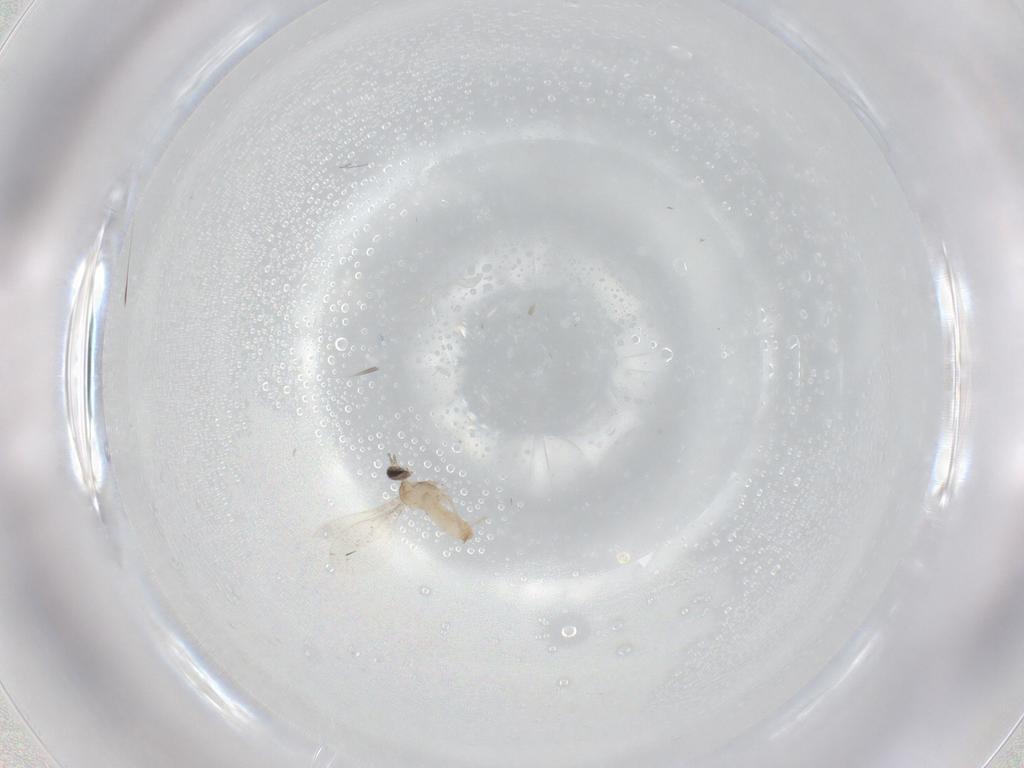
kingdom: Animalia
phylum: Arthropoda
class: Insecta
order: Diptera
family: Cecidomyiidae
